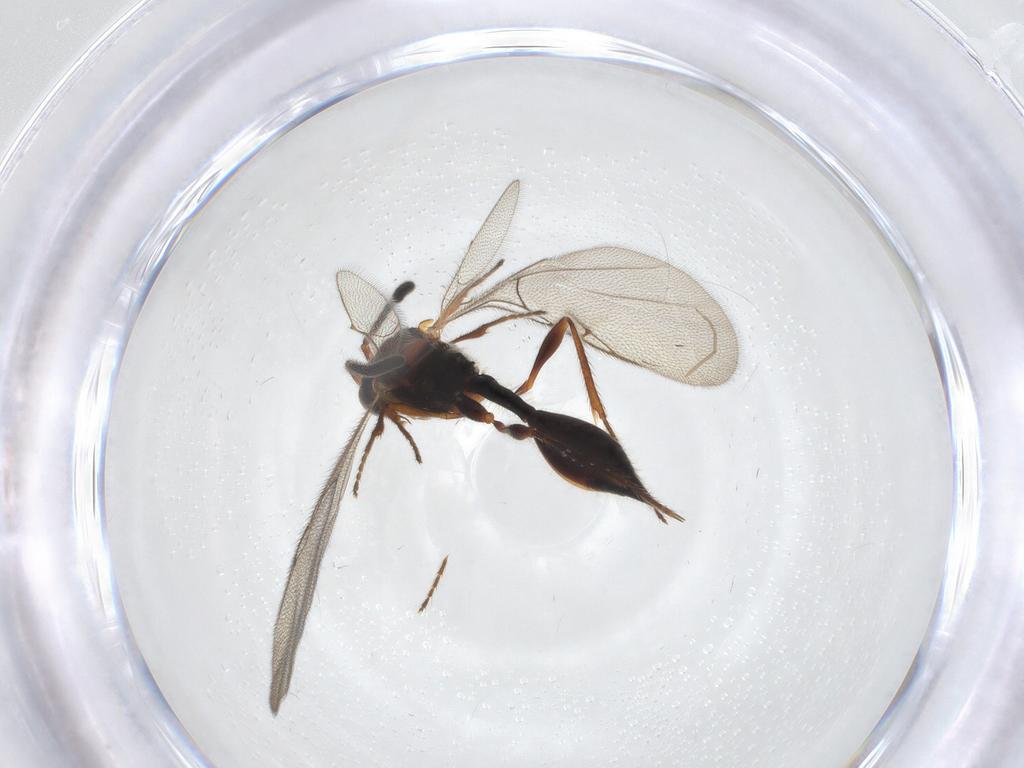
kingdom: Animalia
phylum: Arthropoda
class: Insecta
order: Hymenoptera
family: Diapriidae
